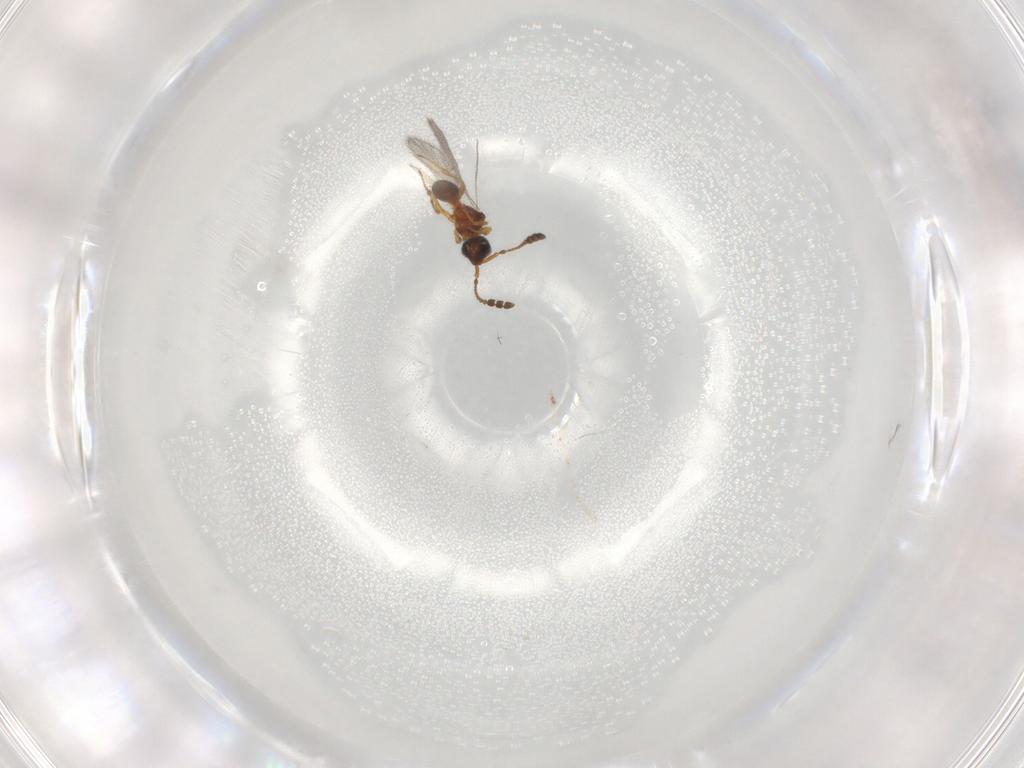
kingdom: Animalia
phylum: Arthropoda
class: Insecta
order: Hymenoptera
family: Diapriidae
